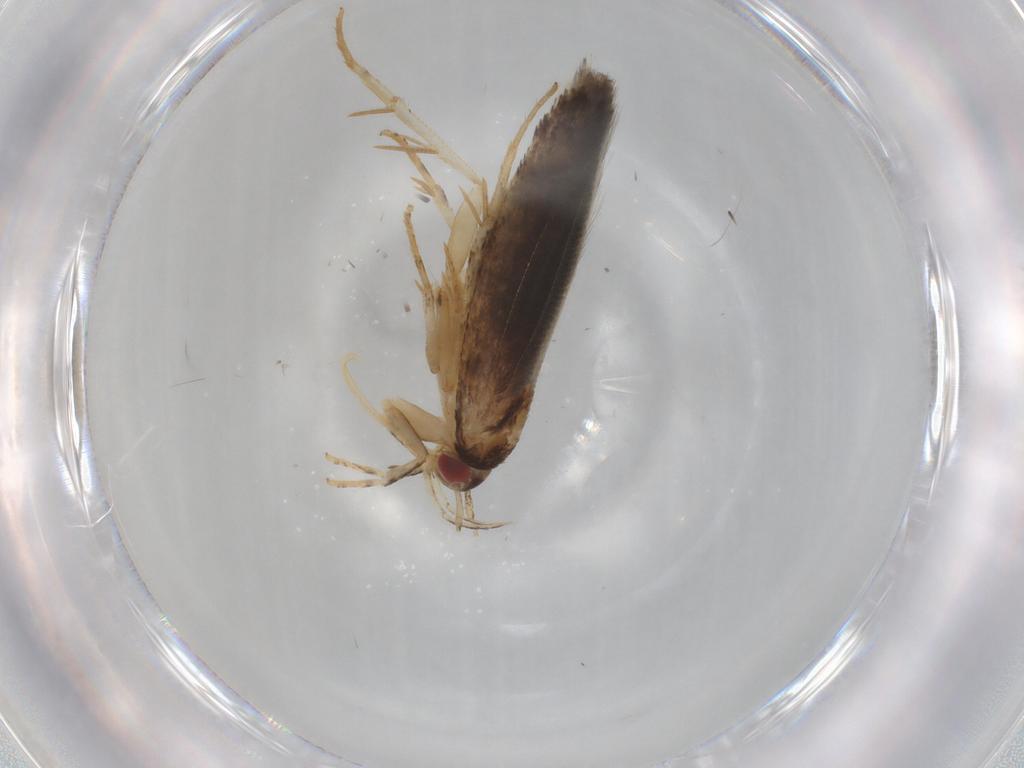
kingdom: Animalia
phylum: Arthropoda
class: Insecta
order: Lepidoptera
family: Cosmopterigidae
